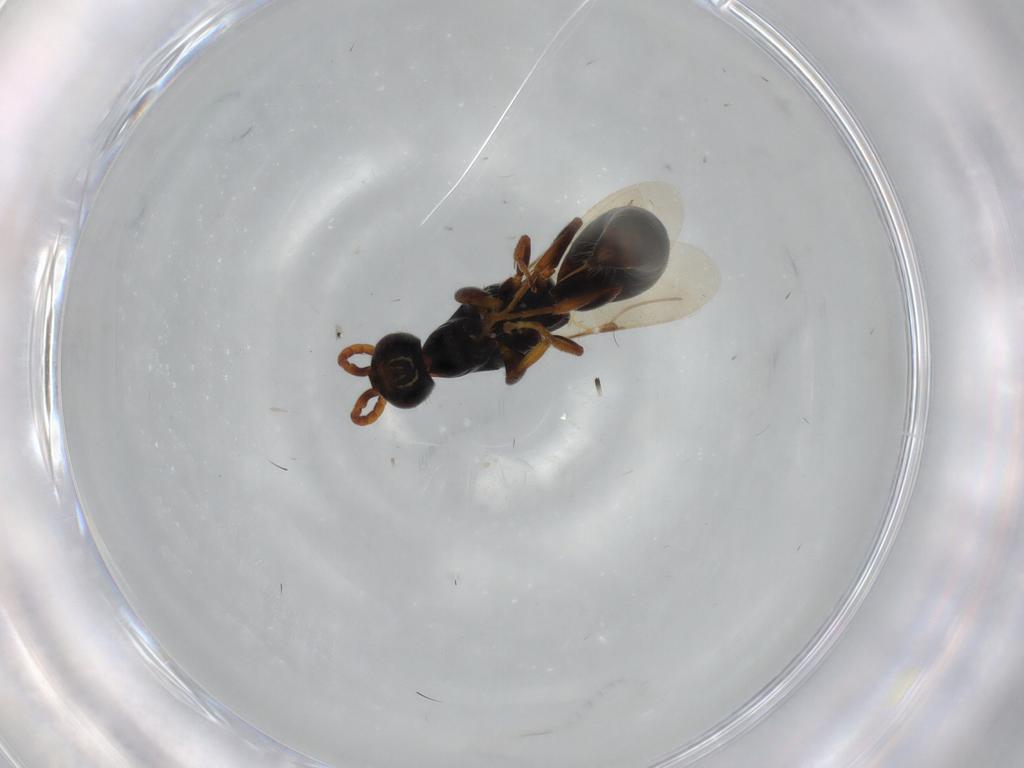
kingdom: Animalia
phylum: Arthropoda
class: Insecta
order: Hymenoptera
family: Bethylidae
